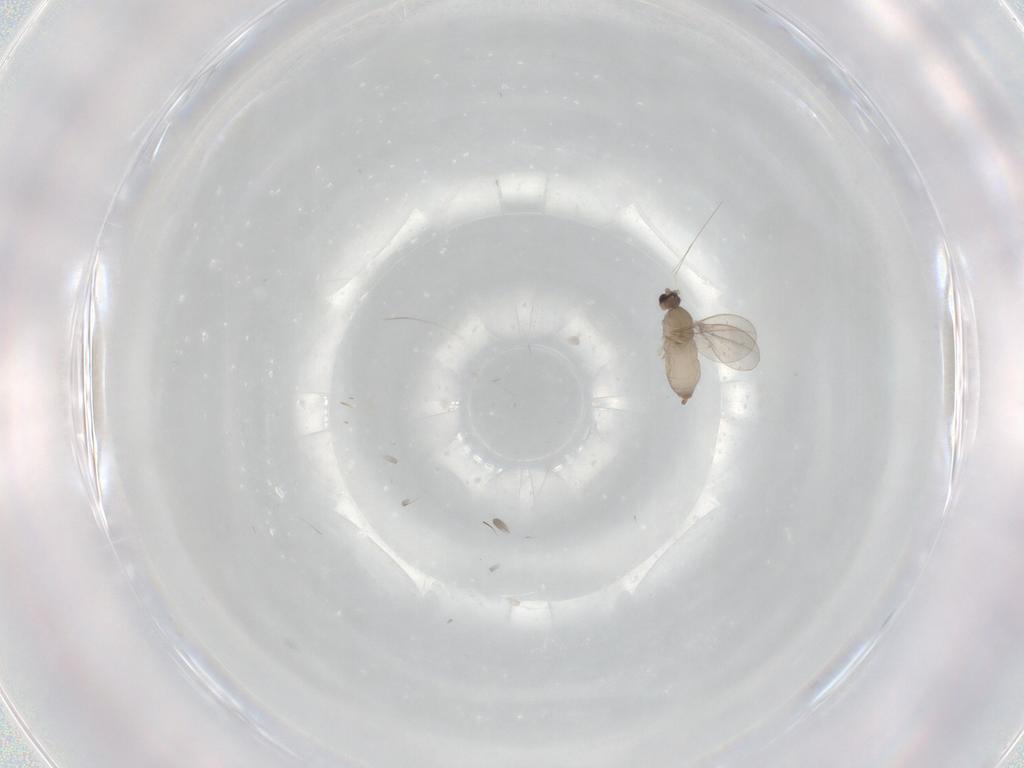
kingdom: Animalia
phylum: Arthropoda
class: Insecta
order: Diptera
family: Cecidomyiidae
